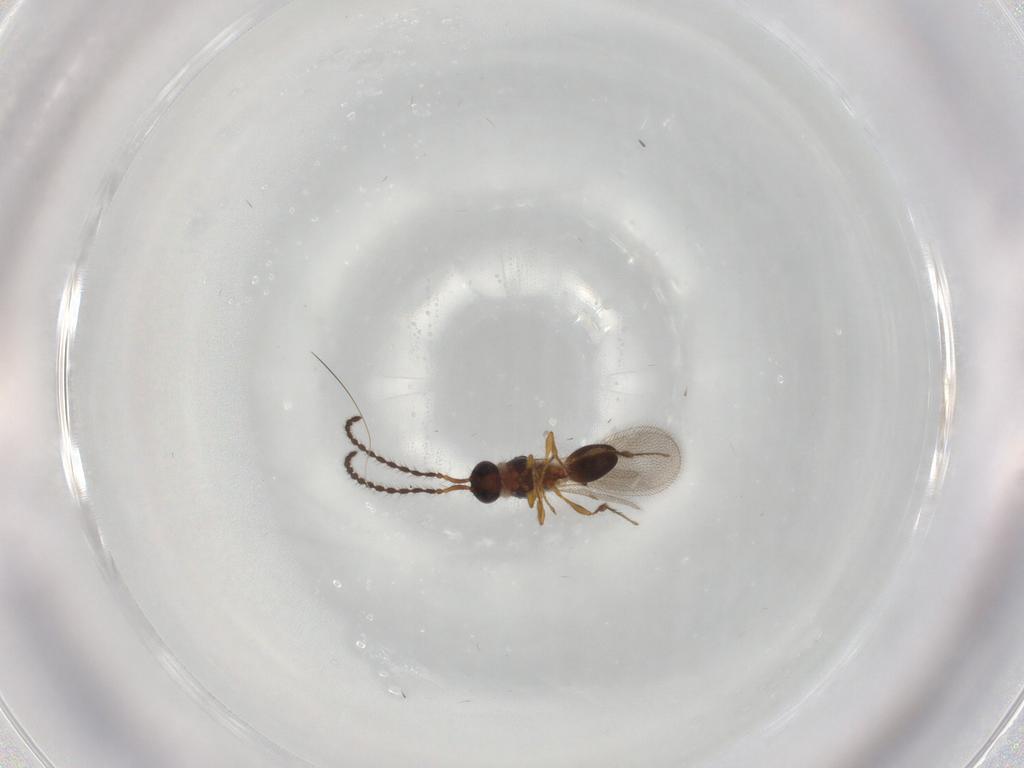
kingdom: Animalia
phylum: Arthropoda
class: Insecta
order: Hymenoptera
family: Diapriidae
